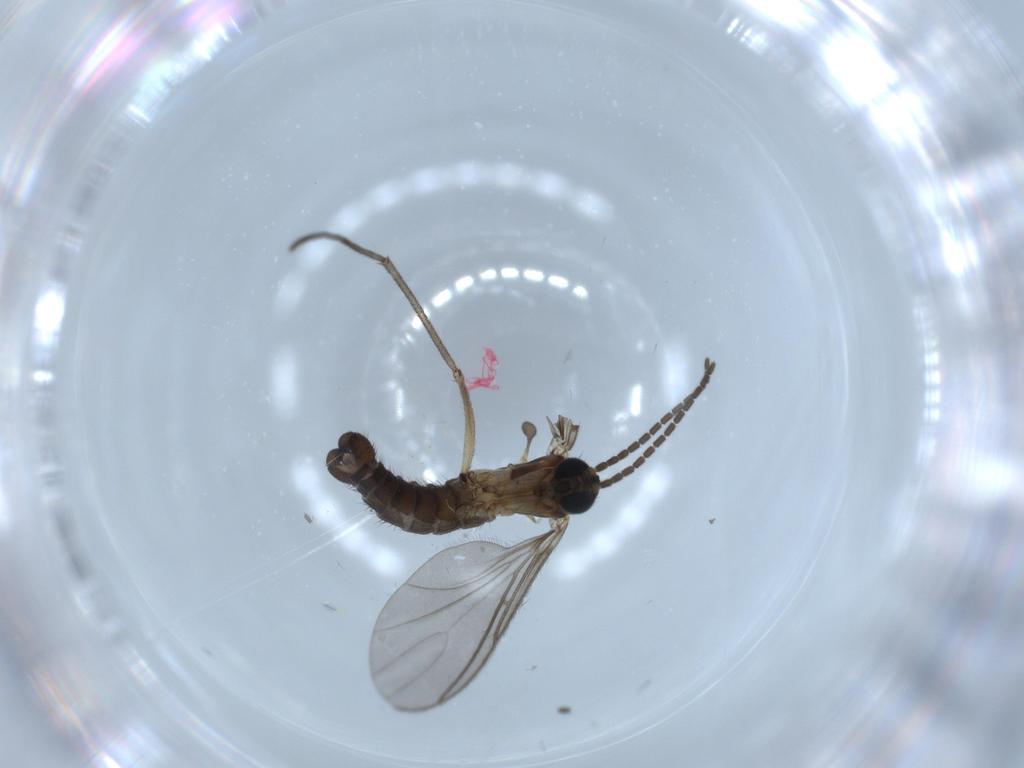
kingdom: Animalia
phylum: Arthropoda
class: Insecta
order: Diptera
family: Sciaridae
